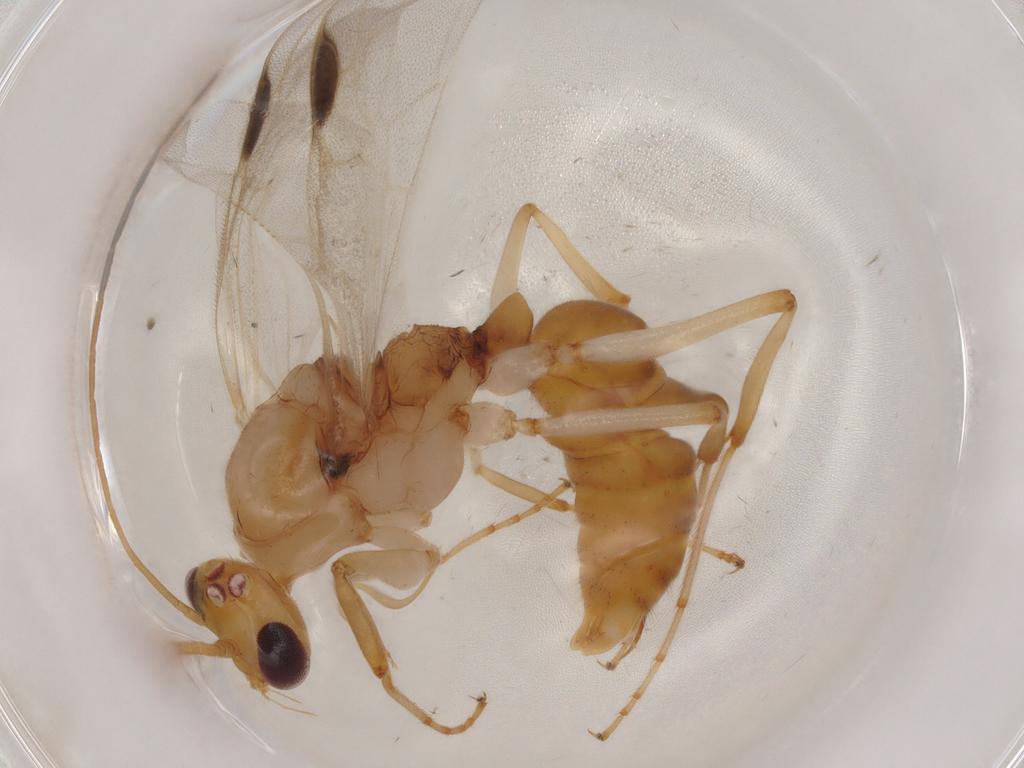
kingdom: Animalia
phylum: Arthropoda
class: Insecta
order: Hymenoptera
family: Formicidae
